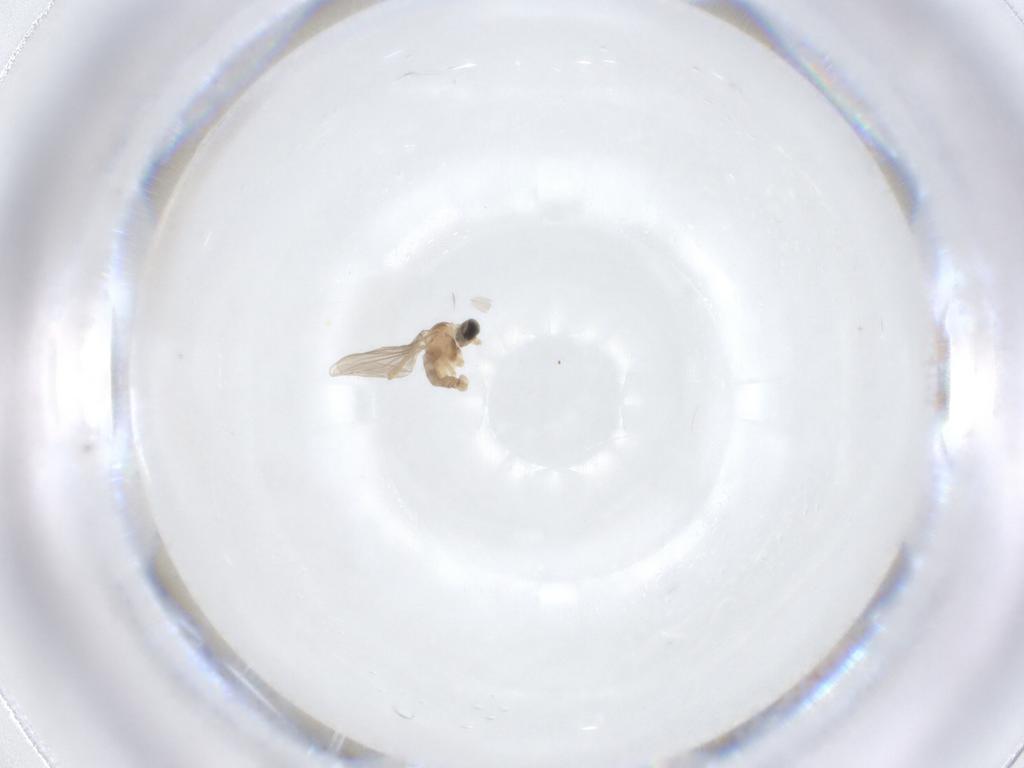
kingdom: Animalia
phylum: Arthropoda
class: Insecta
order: Diptera
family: Cecidomyiidae
